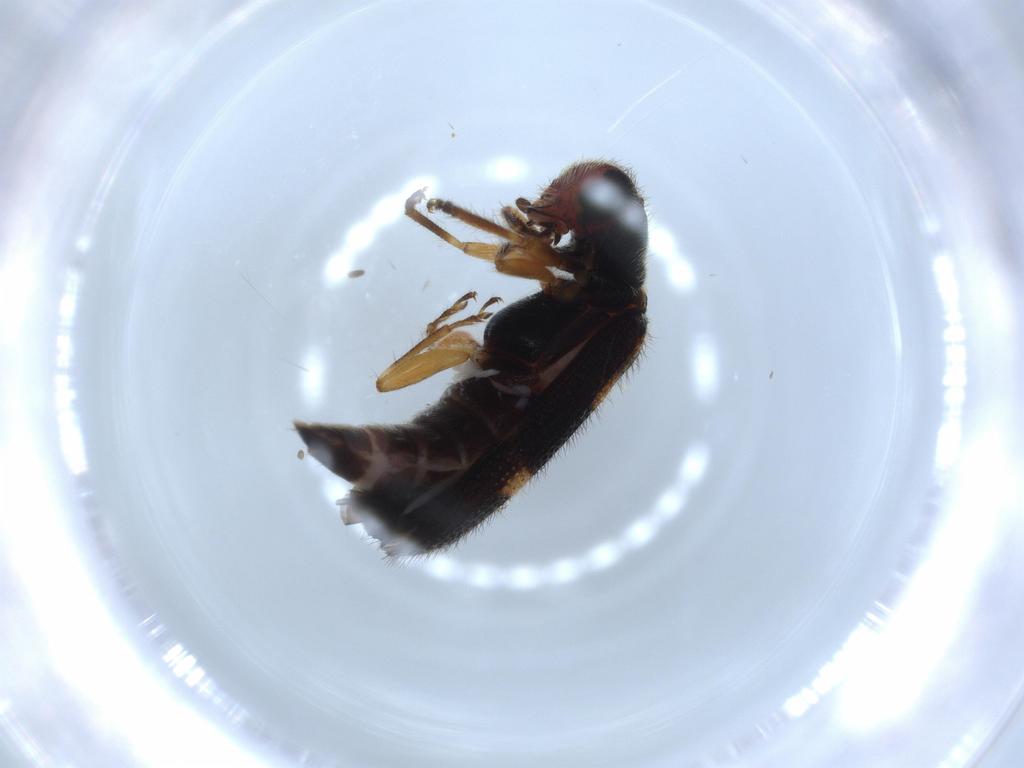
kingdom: Animalia
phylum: Arthropoda
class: Insecta
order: Coleoptera
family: Cleridae
